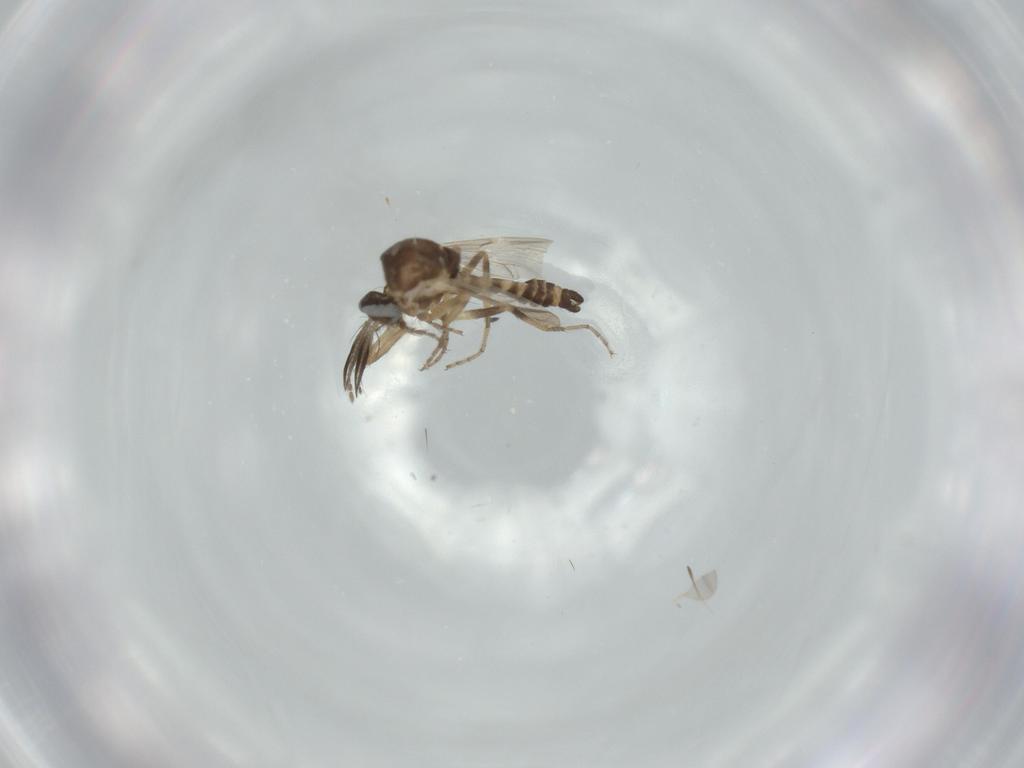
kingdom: Animalia
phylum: Arthropoda
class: Insecta
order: Diptera
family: Ceratopogonidae
